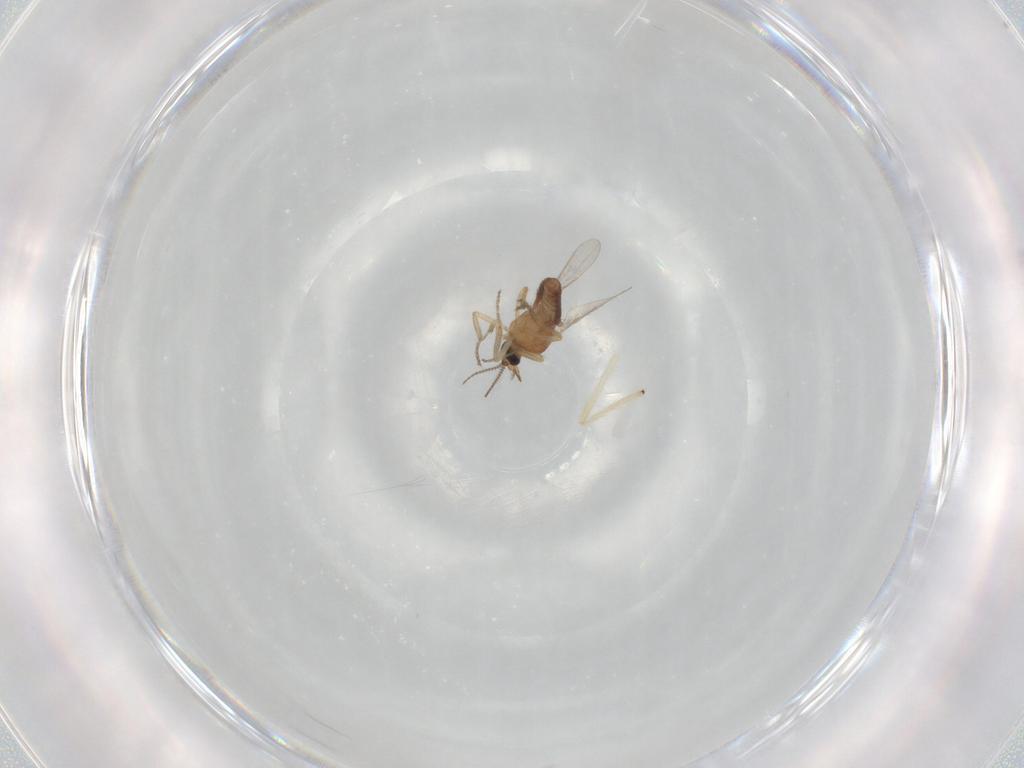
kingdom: Animalia
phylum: Arthropoda
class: Insecta
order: Diptera
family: Ceratopogonidae
